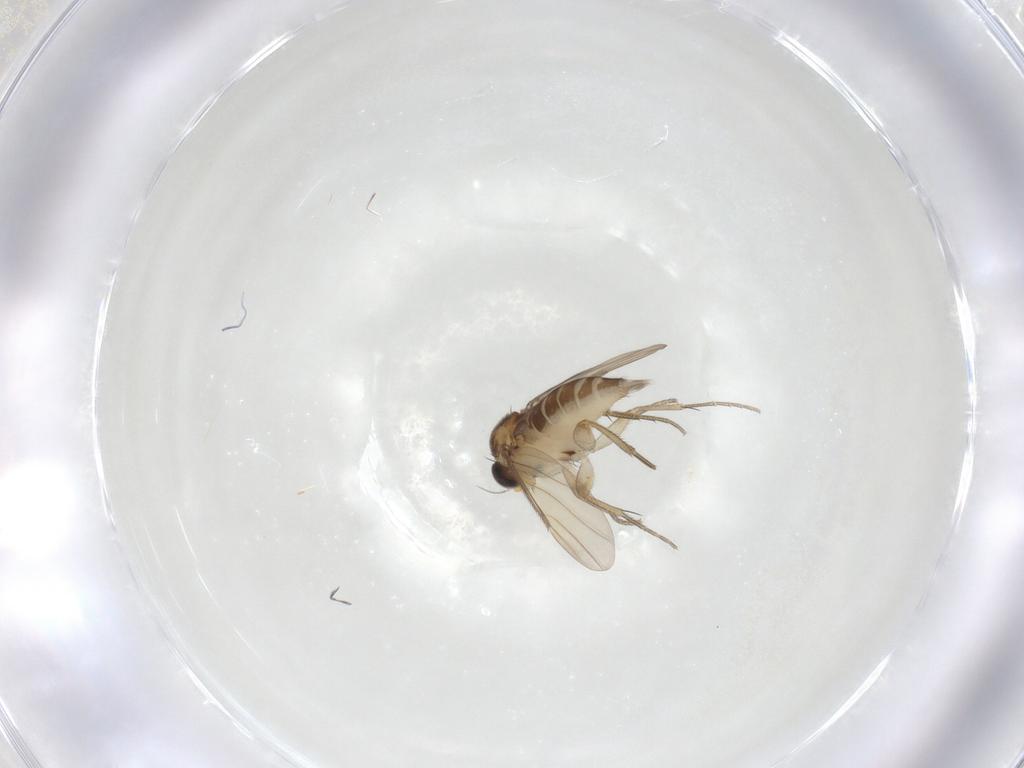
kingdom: Animalia
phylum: Arthropoda
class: Insecta
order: Diptera
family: Phoridae
